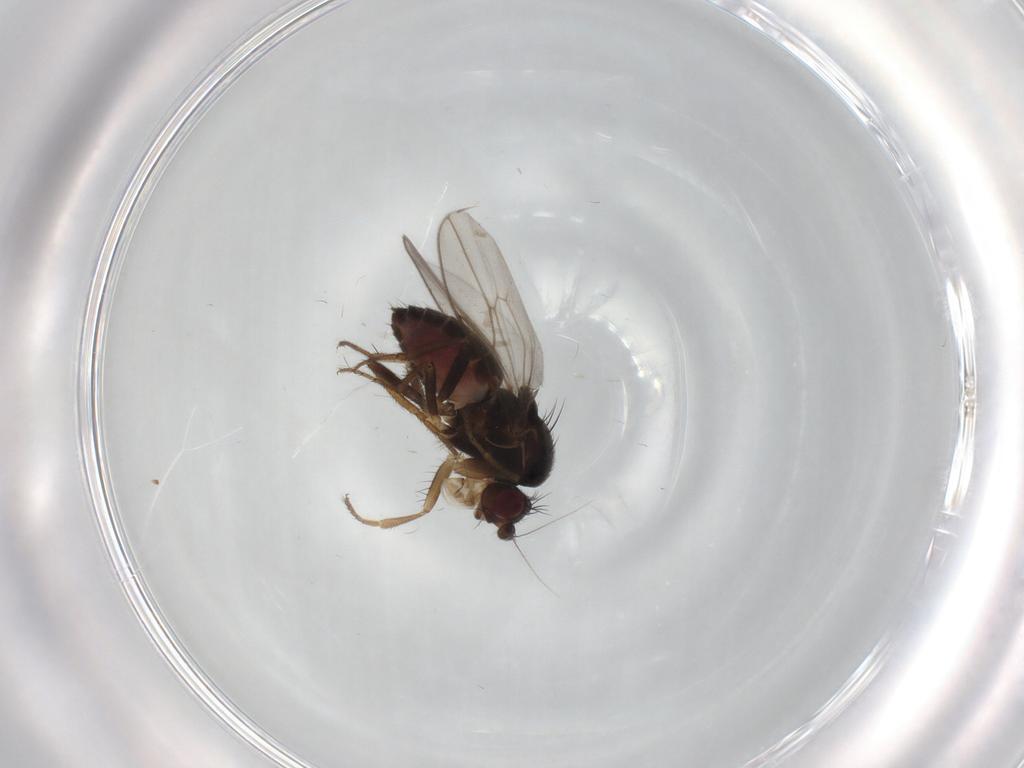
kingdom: Animalia
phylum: Arthropoda
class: Insecta
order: Diptera
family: Sphaeroceridae
